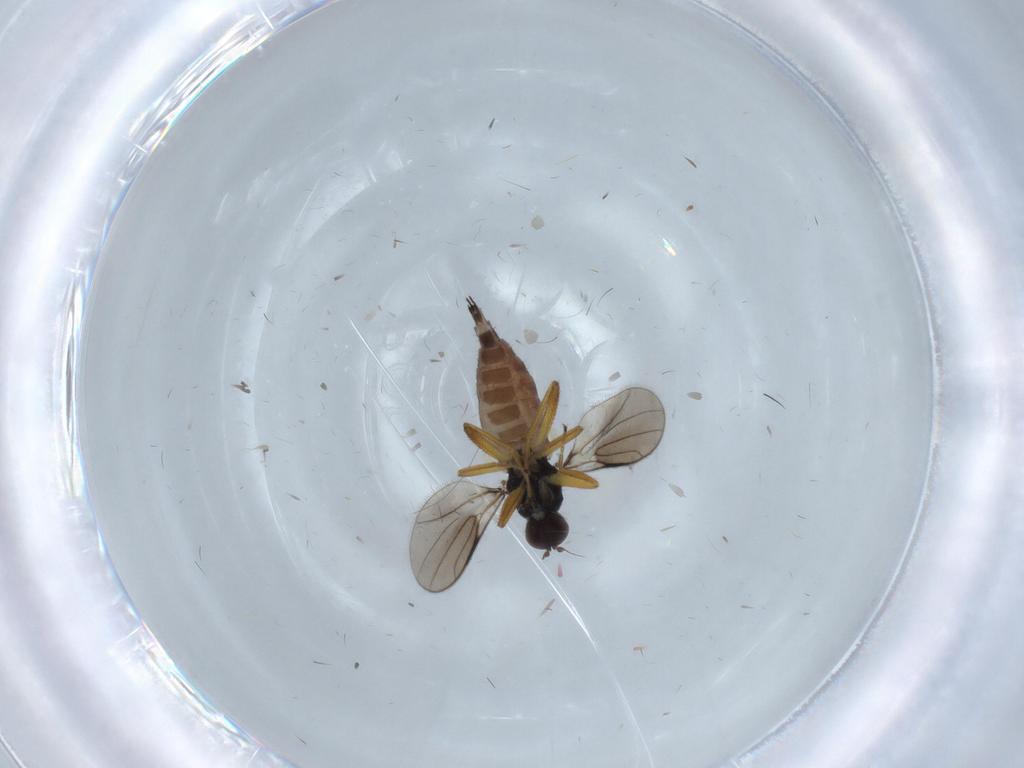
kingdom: Animalia
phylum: Arthropoda
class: Insecta
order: Diptera
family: Hybotidae
